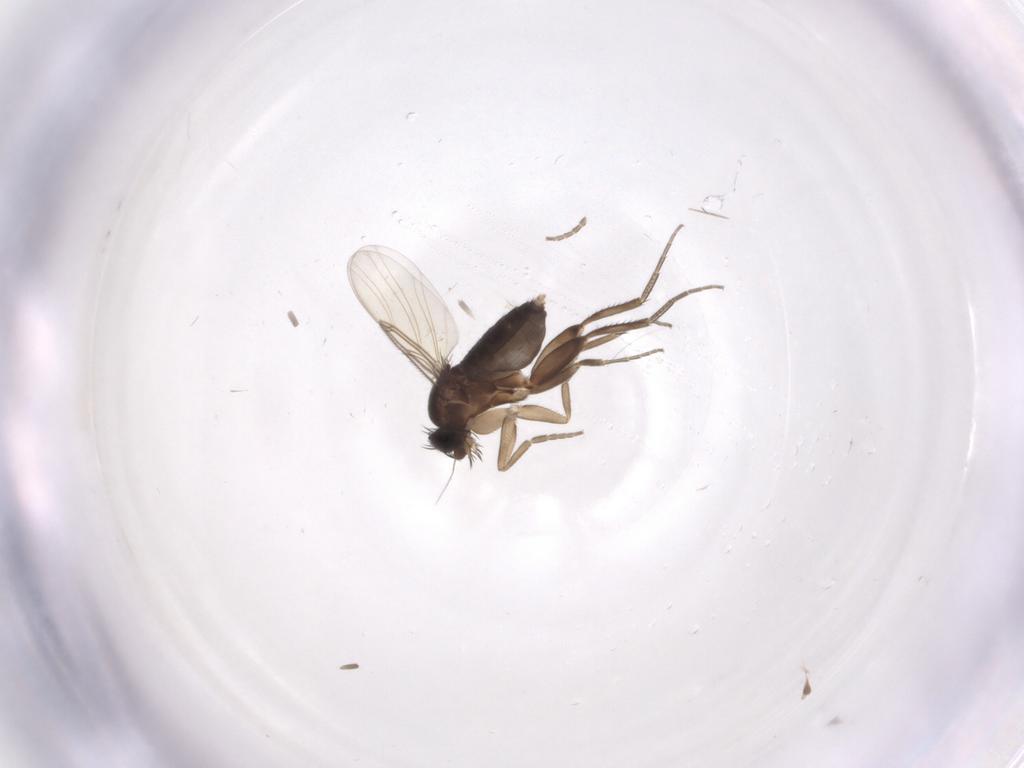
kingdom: Animalia
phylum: Arthropoda
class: Insecta
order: Diptera
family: Phoridae
